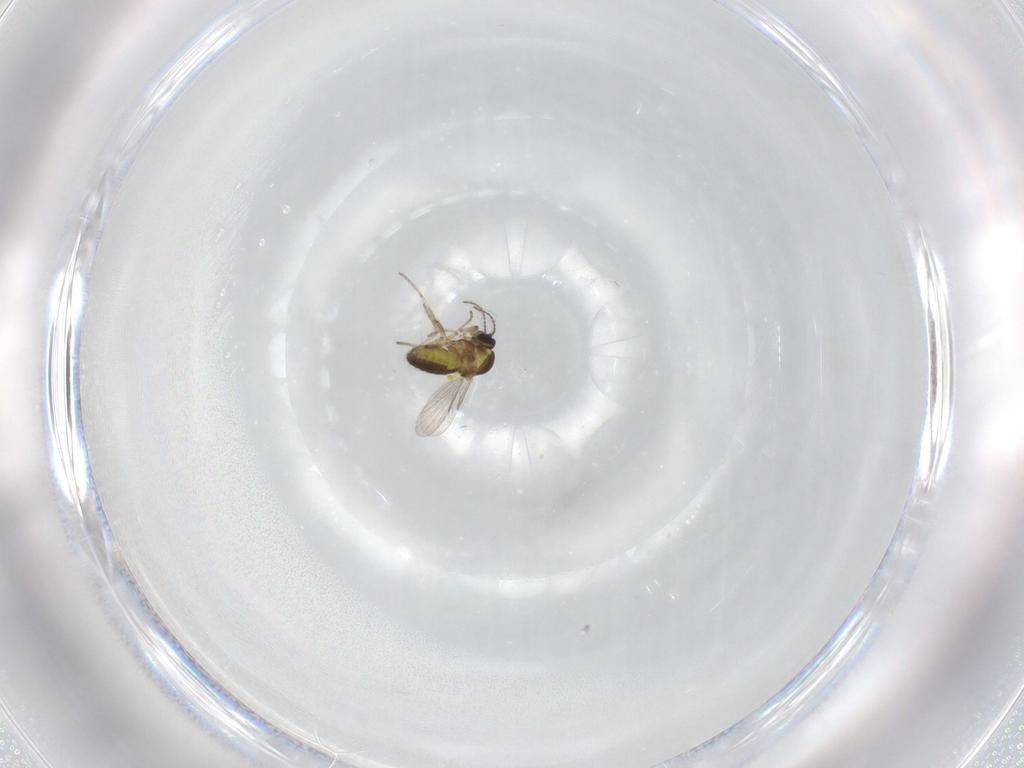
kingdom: Animalia
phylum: Arthropoda
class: Insecta
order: Diptera
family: Ceratopogonidae
